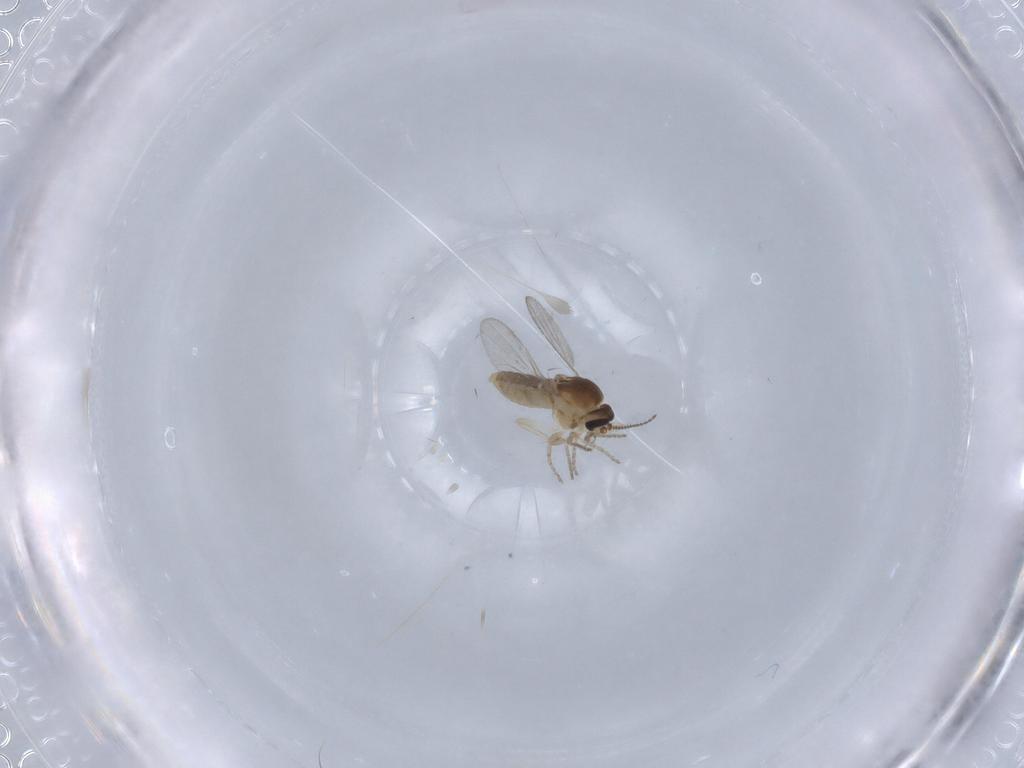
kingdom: Animalia
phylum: Arthropoda
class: Insecta
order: Diptera
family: Ceratopogonidae
